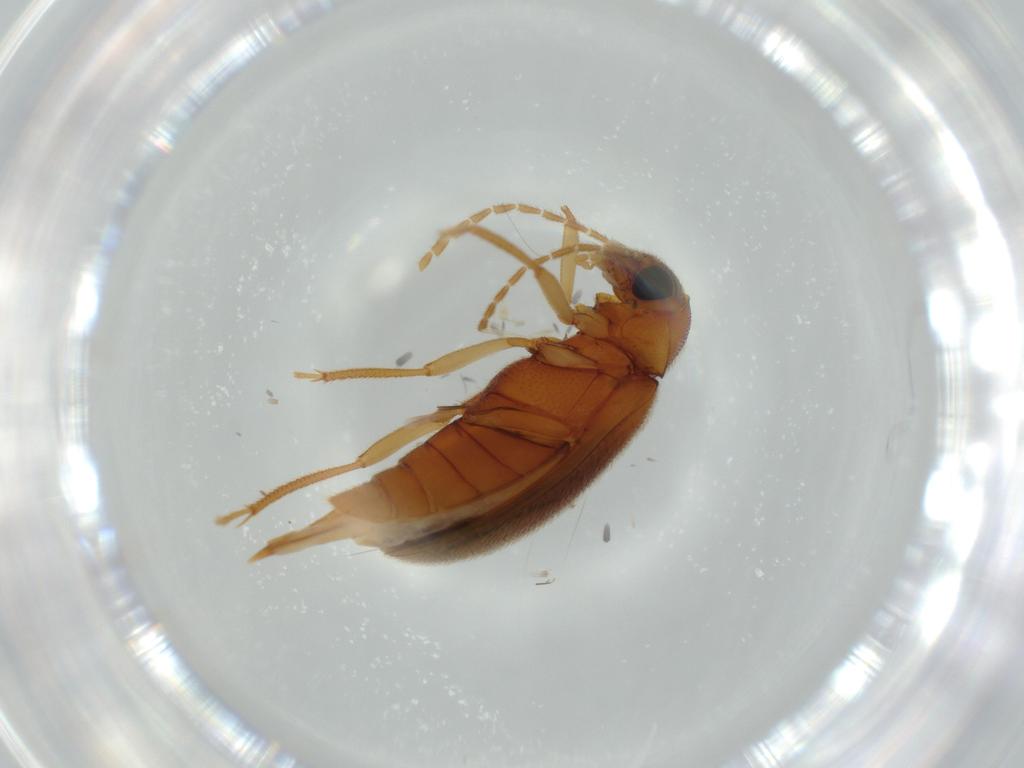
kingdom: Animalia
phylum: Arthropoda
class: Insecta
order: Coleoptera
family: Ptilodactylidae
